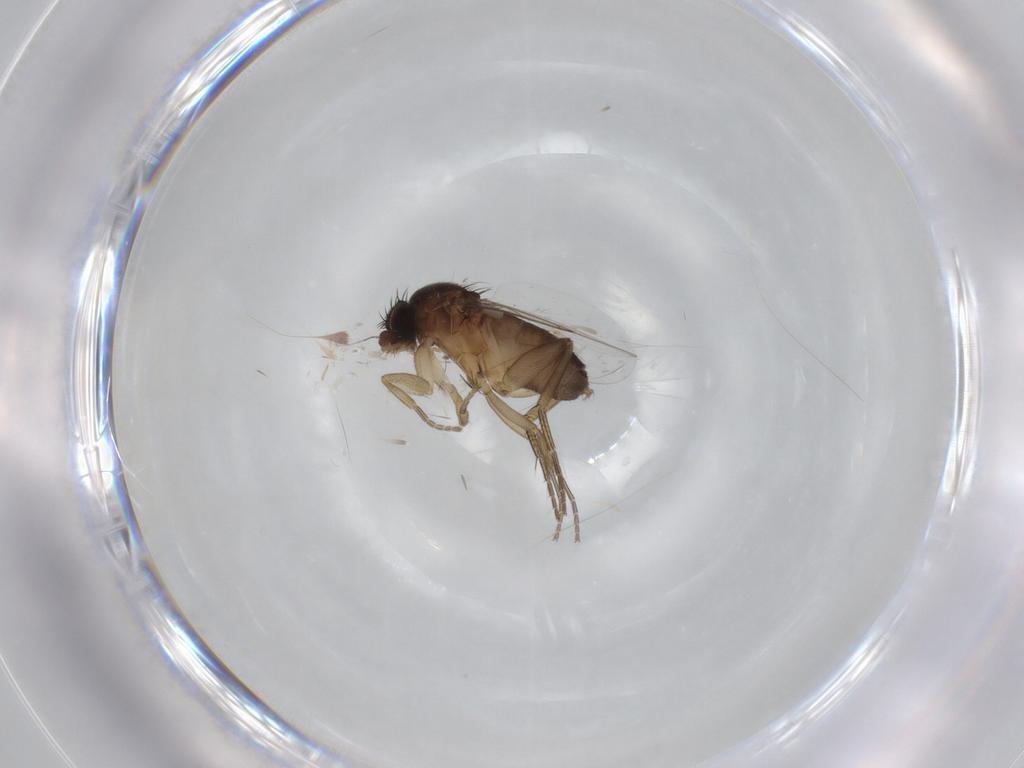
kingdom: Animalia
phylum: Arthropoda
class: Insecta
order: Diptera
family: Phoridae
